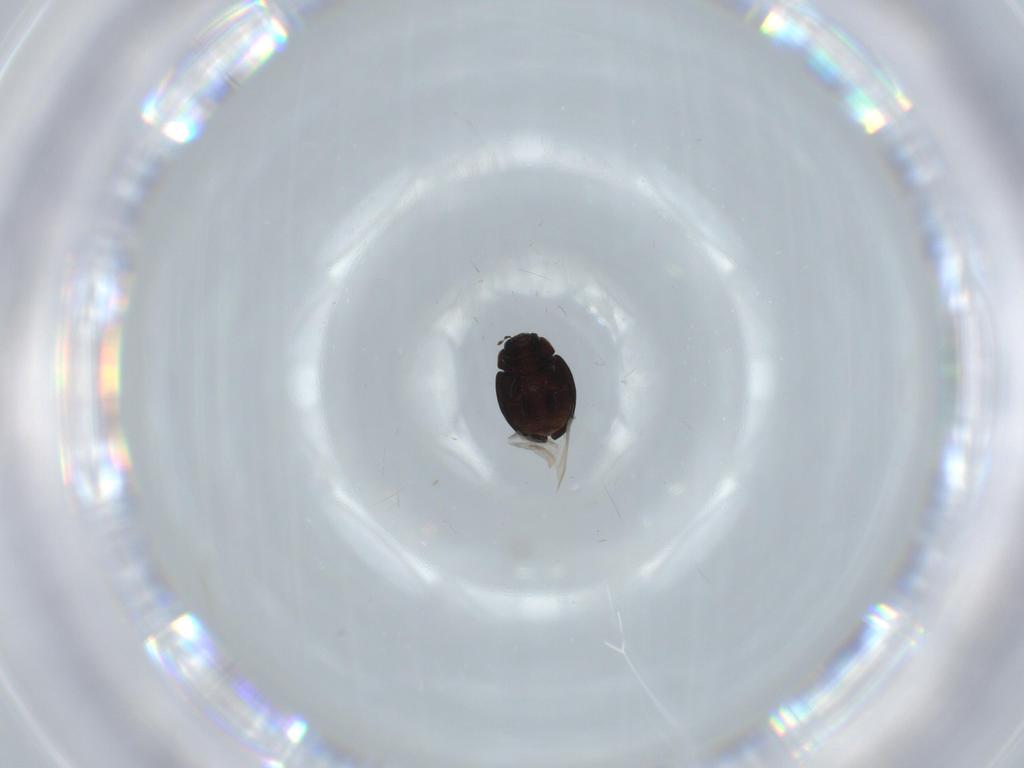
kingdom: Animalia
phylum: Arthropoda
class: Insecta
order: Coleoptera
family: Coccinellidae
